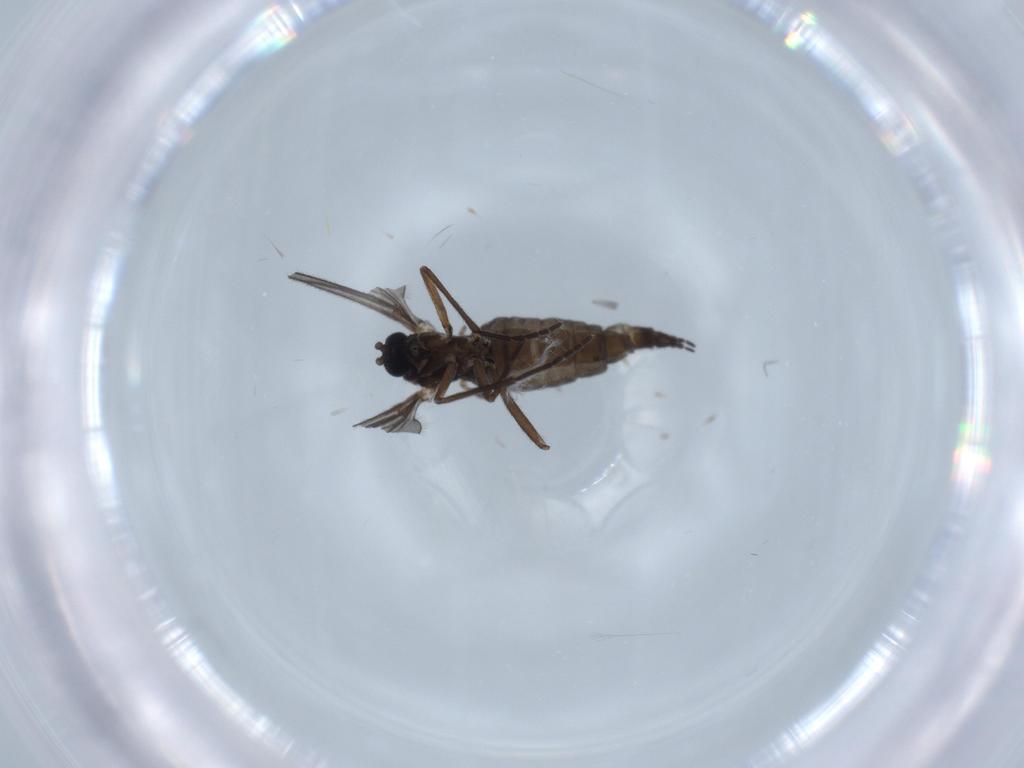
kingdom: Animalia
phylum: Arthropoda
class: Insecta
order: Diptera
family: Sciaridae
